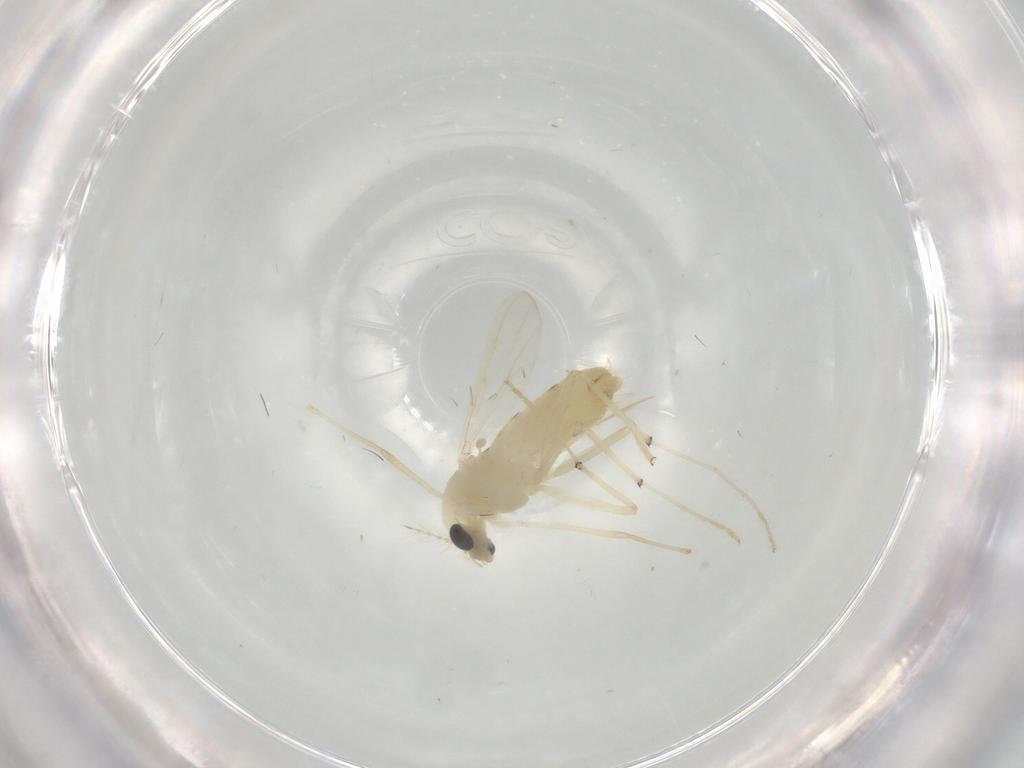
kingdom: Animalia
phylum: Arthropoda
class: Insecta
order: Diptera
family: Chironomidae
